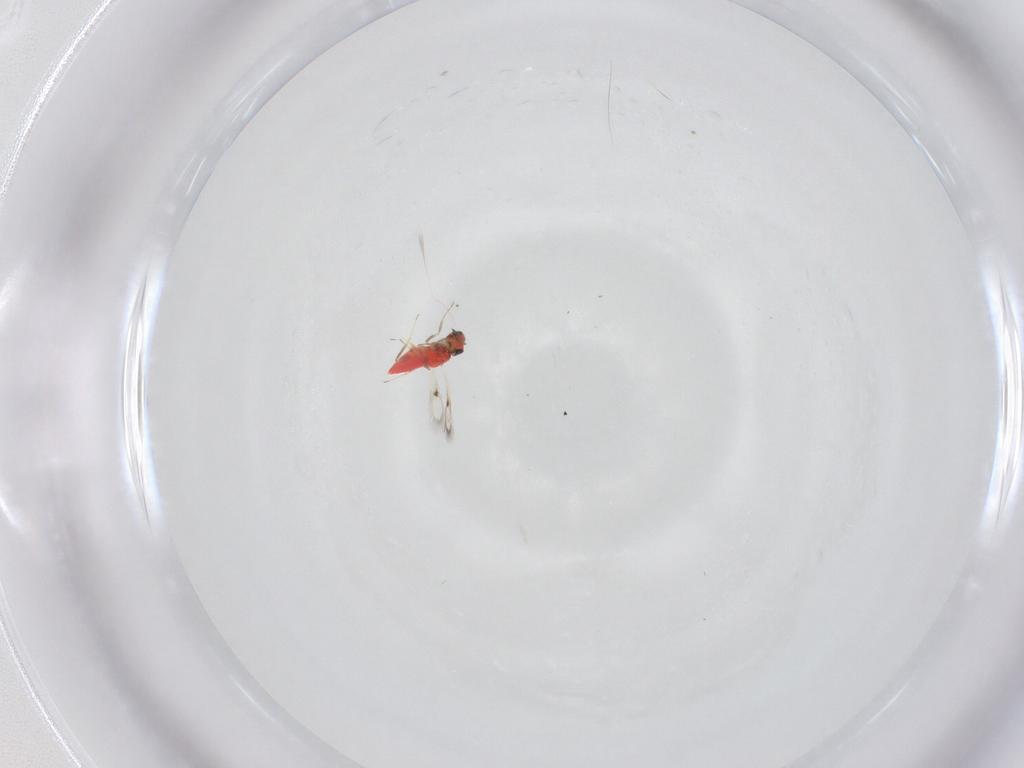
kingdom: Animalia
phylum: Arthropoda
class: Insecta
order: Hymenoptera
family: Trichogrammatidae
